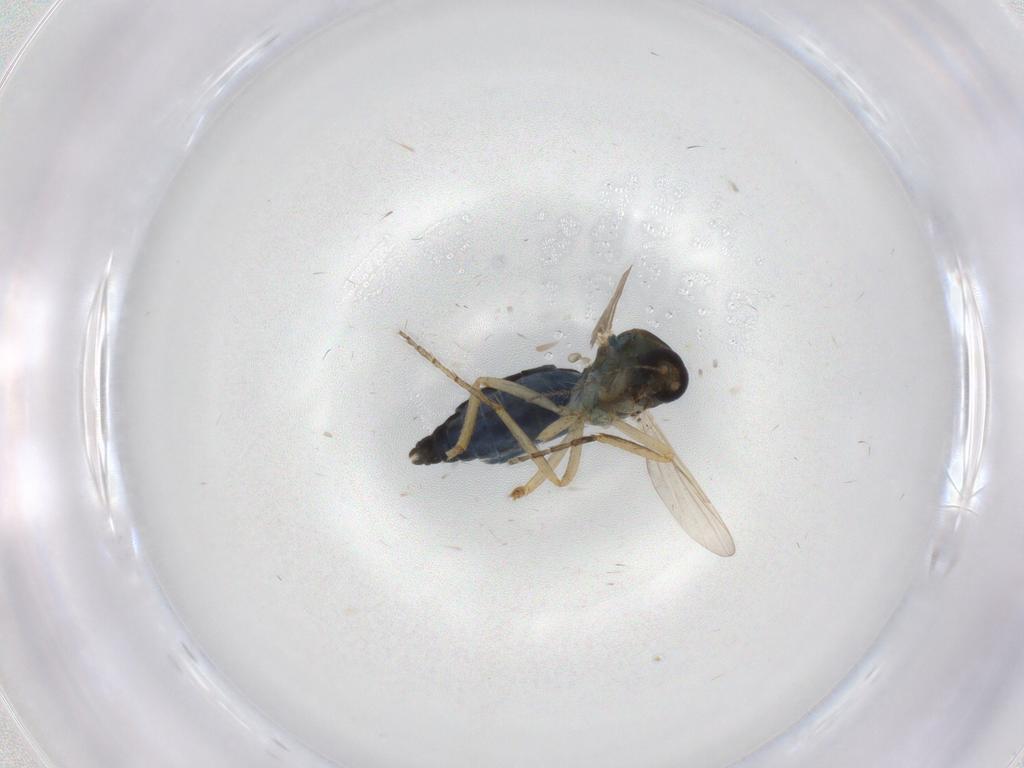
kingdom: Animalia
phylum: Arthropoda
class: Insecta
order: Diptera
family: Ceratopogonidae
